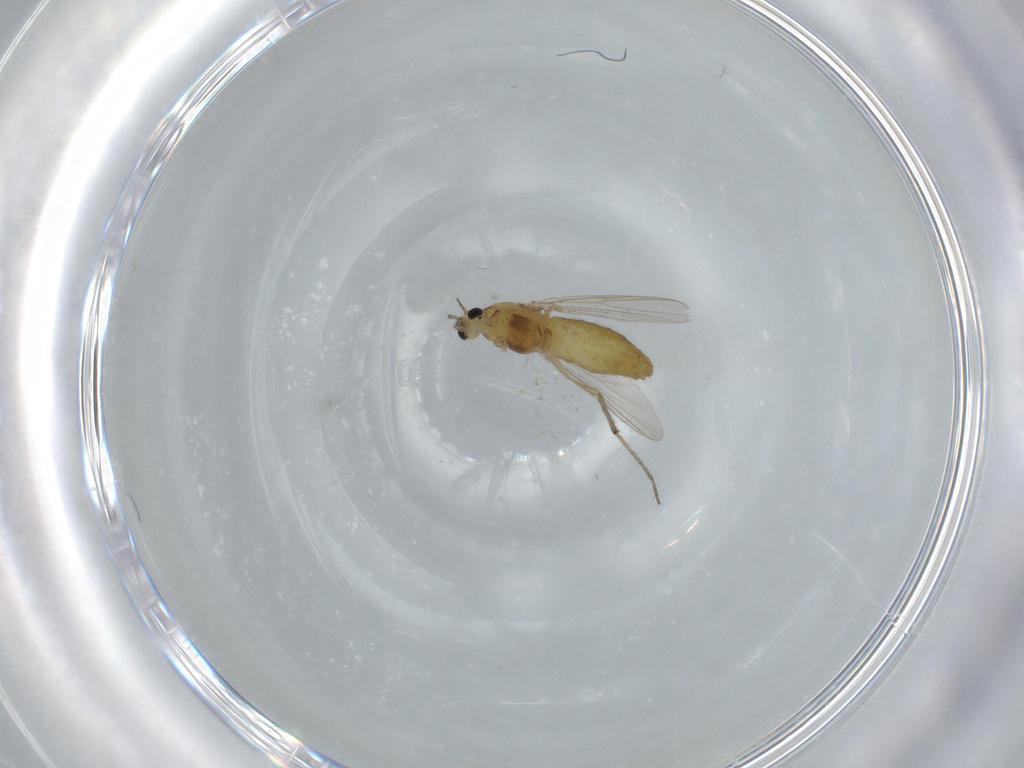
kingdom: Animalia
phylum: Arthropoda
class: Insecta
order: Diptera
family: Chironomidae
